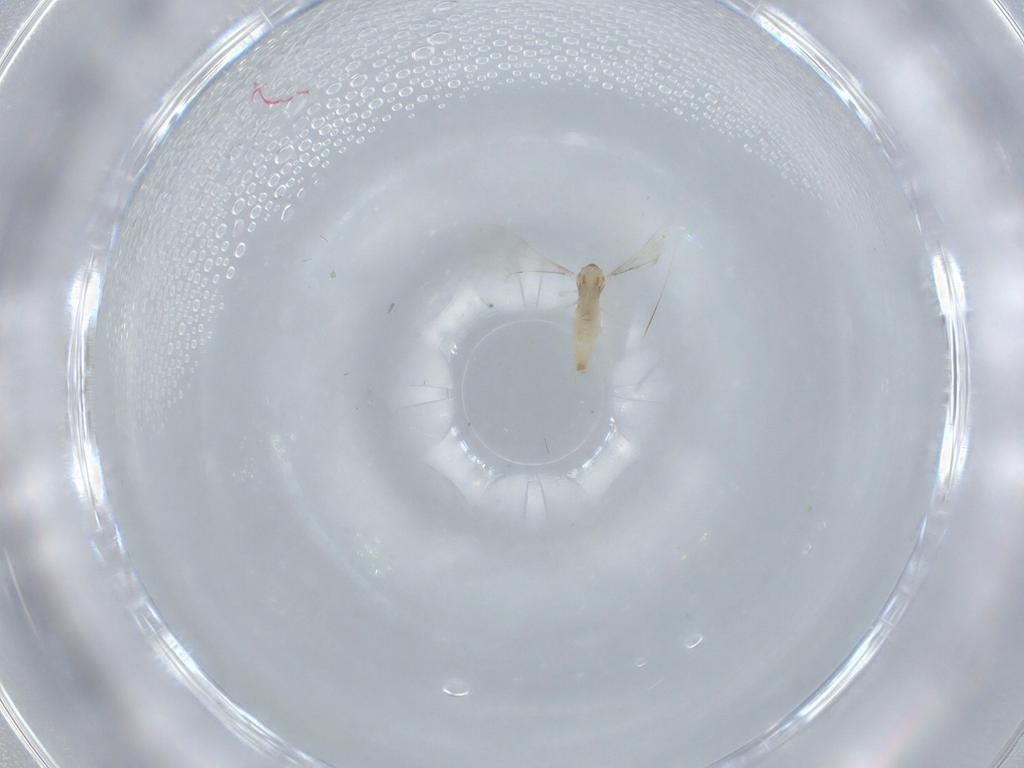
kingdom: Animalia
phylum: Arthropoda
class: Insecta
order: Diptera
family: Cecidomyiidae
